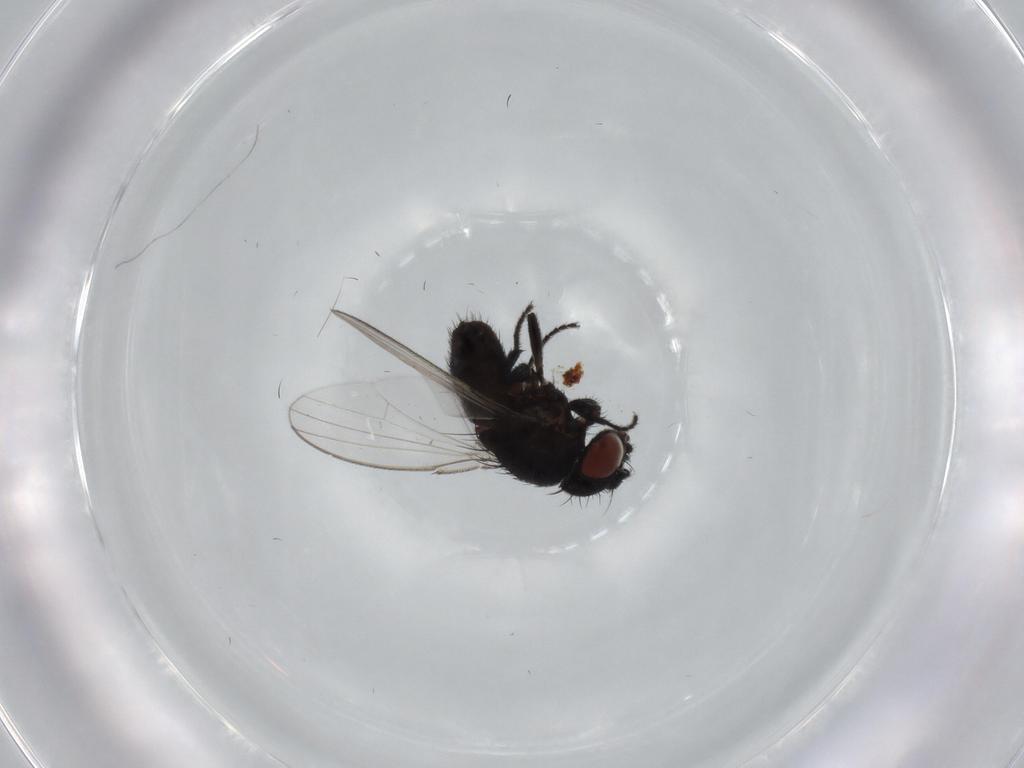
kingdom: Animalia
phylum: Arthropoda
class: Insecta
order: Diptera
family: Milichiidae
